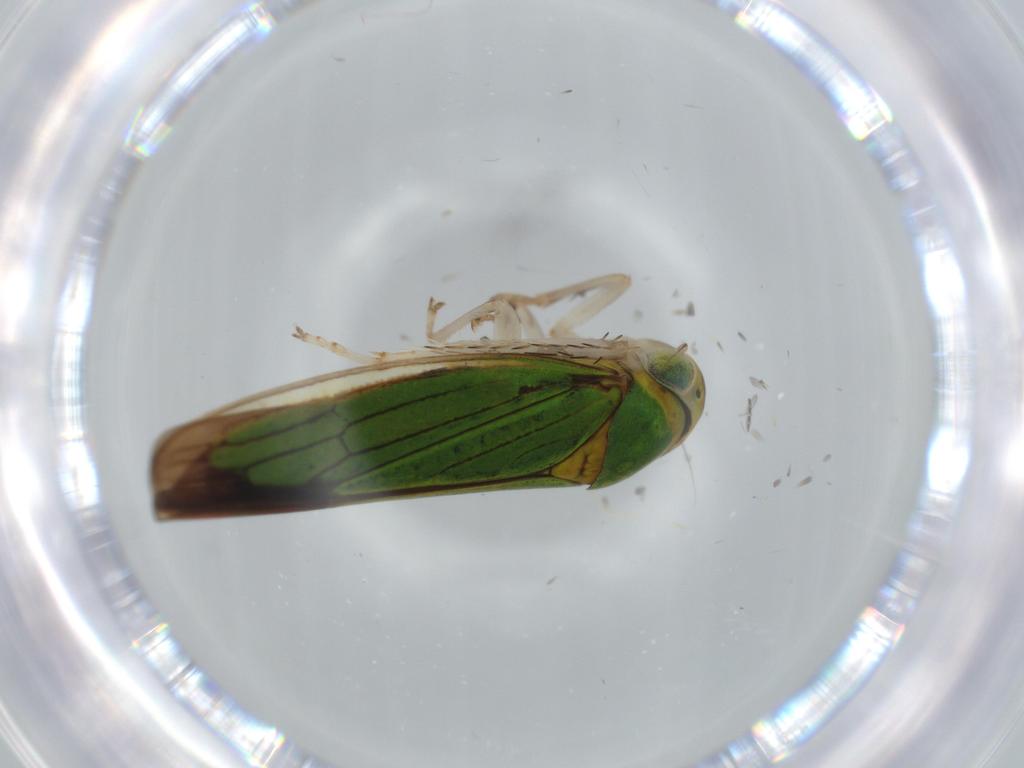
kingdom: Animalia
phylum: Arthropoda
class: Insecta
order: Hemiptera
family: Cicadellidae
